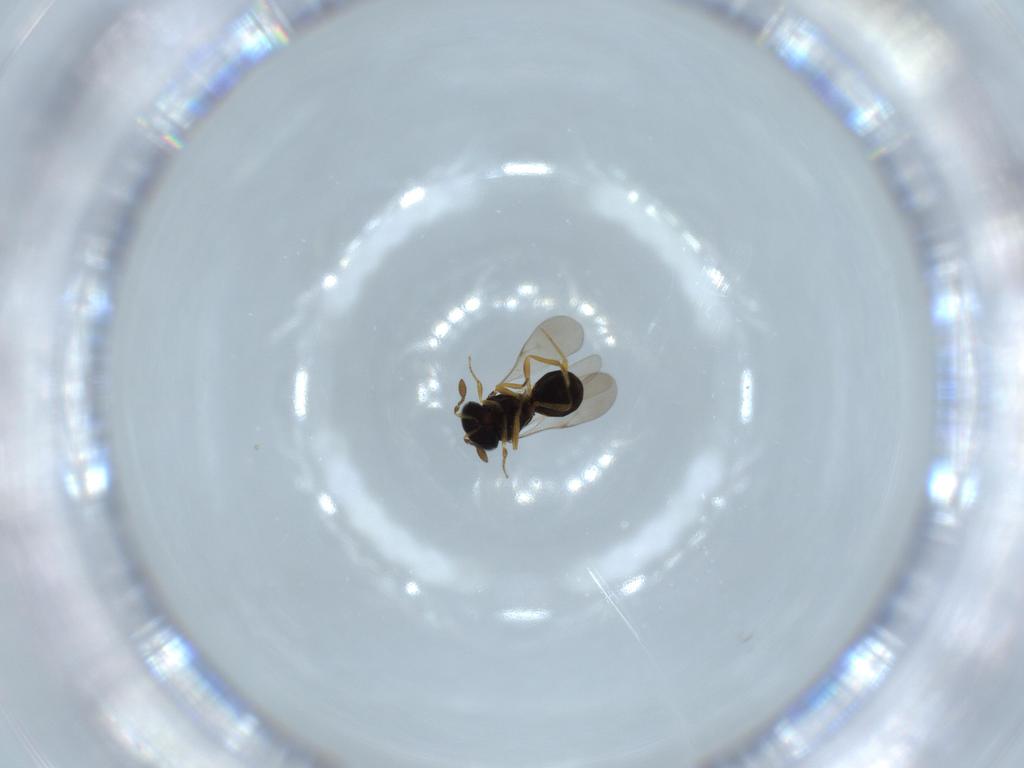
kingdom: Animalia
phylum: Arthropoda
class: Insecta
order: Hymenoptera
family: Scelionidae
